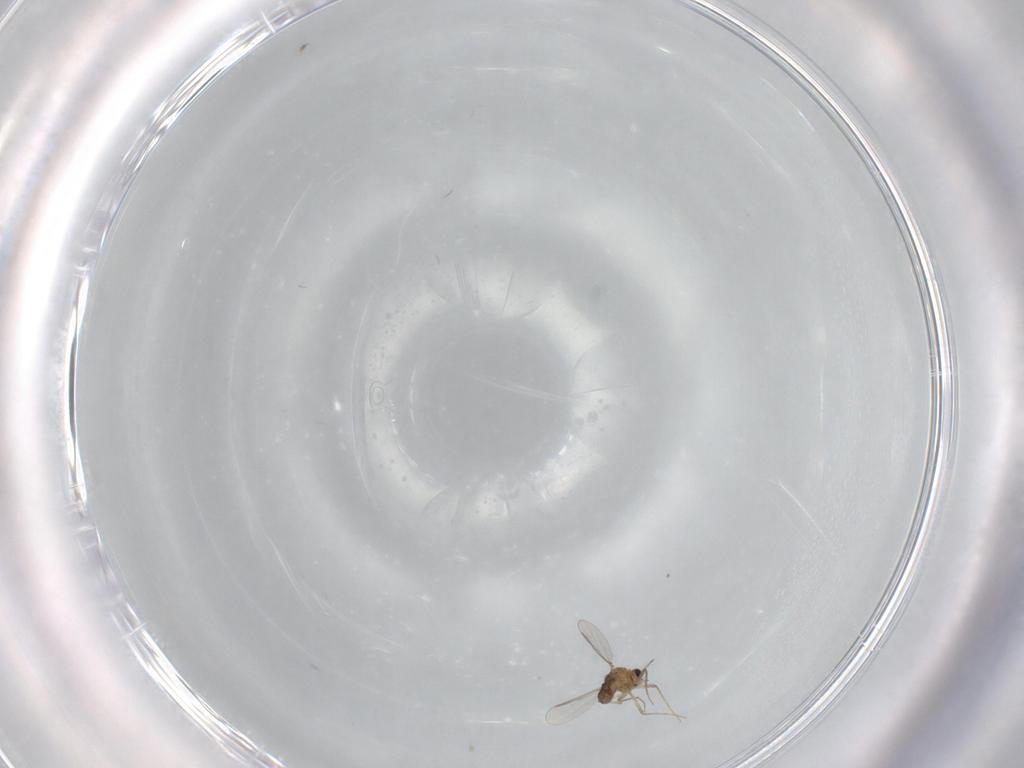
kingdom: Animalia
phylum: Arthropoda
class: Insecta
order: Diptera
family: Chironomidae
